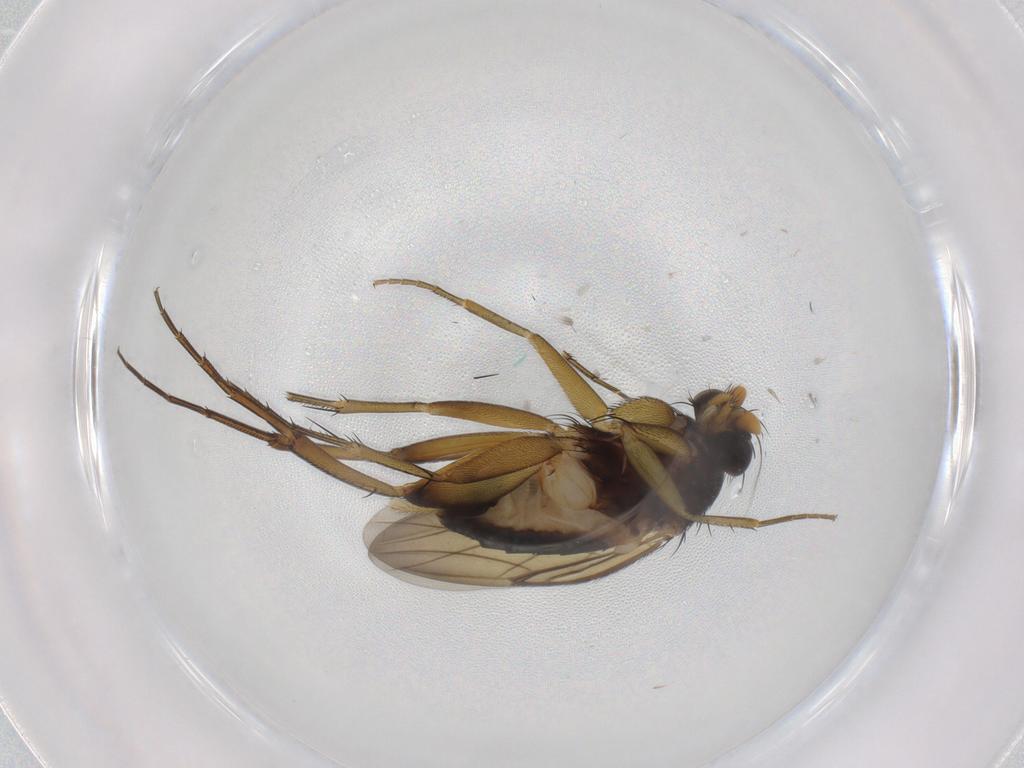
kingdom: Animalia
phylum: Arthropoda
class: Insecta
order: Diptera
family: Phoridae
